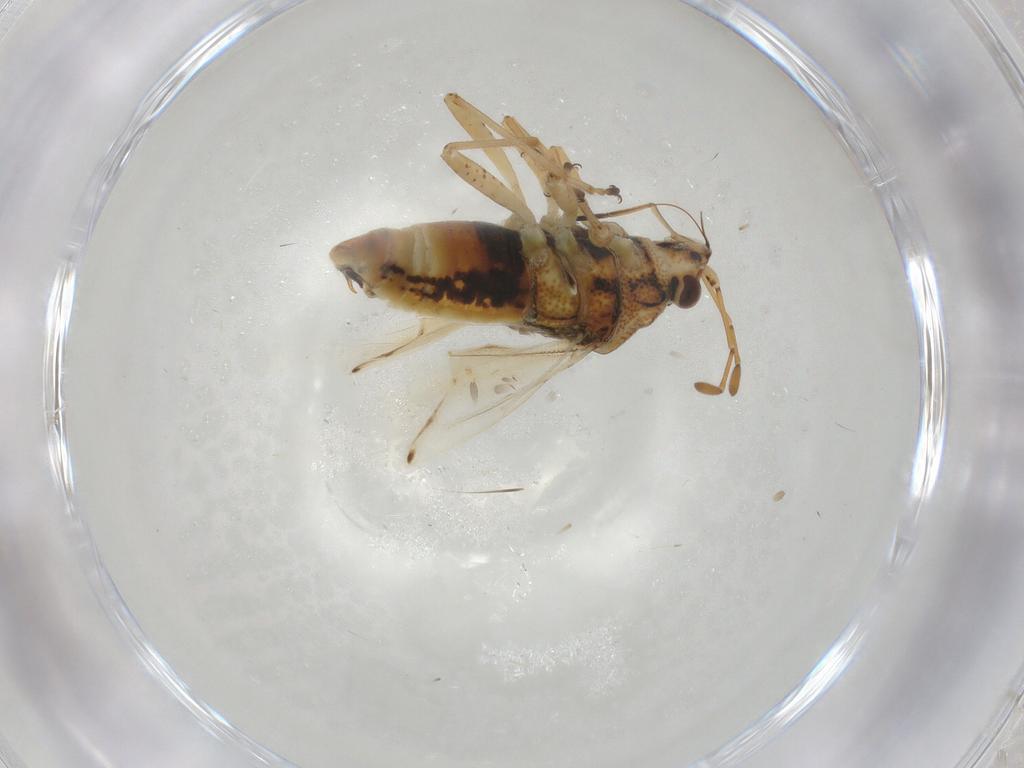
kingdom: Animalia
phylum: Arthropoda
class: Insecta
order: Hemiptera
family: Lygaeidae
